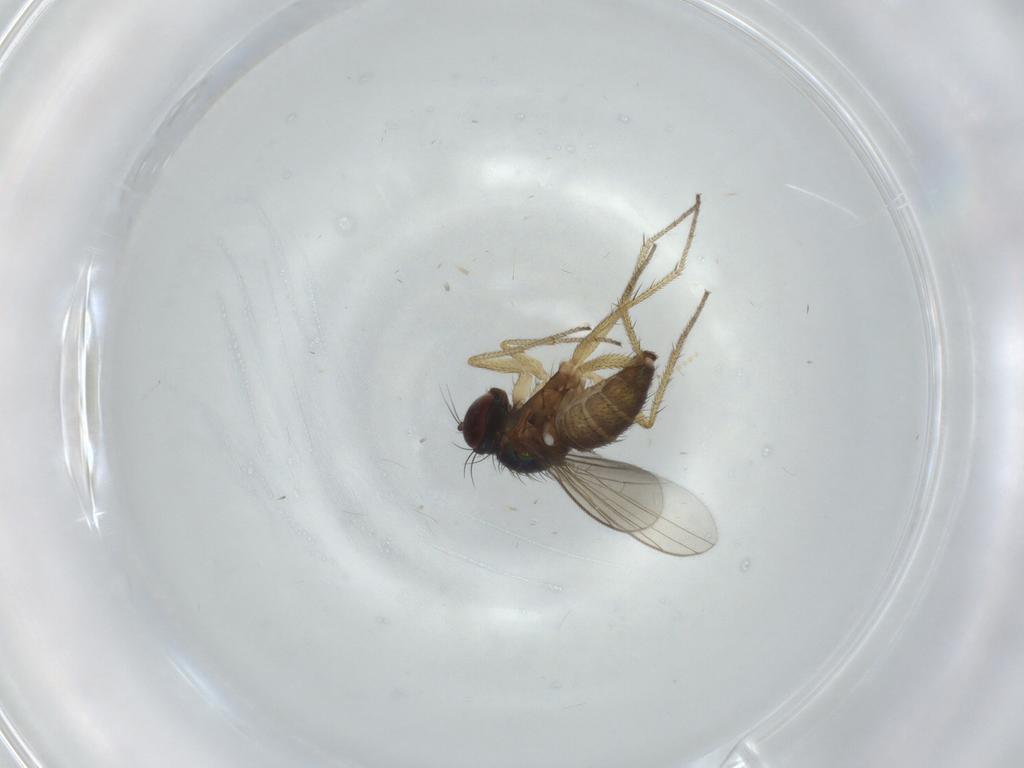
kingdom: Animalia
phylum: Arthropoda
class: Insecta
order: Diptera
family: Dolichopodidae
